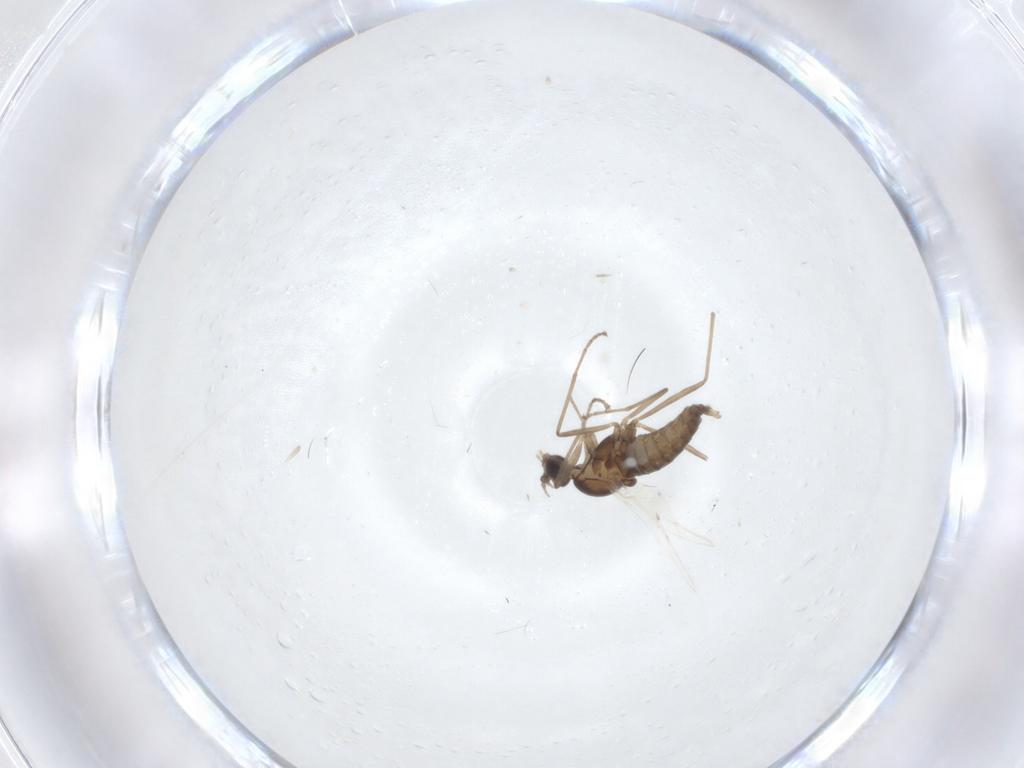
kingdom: Animalia
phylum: Arthropoda
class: Insecta
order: Diptera
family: Cecidomyiidae
